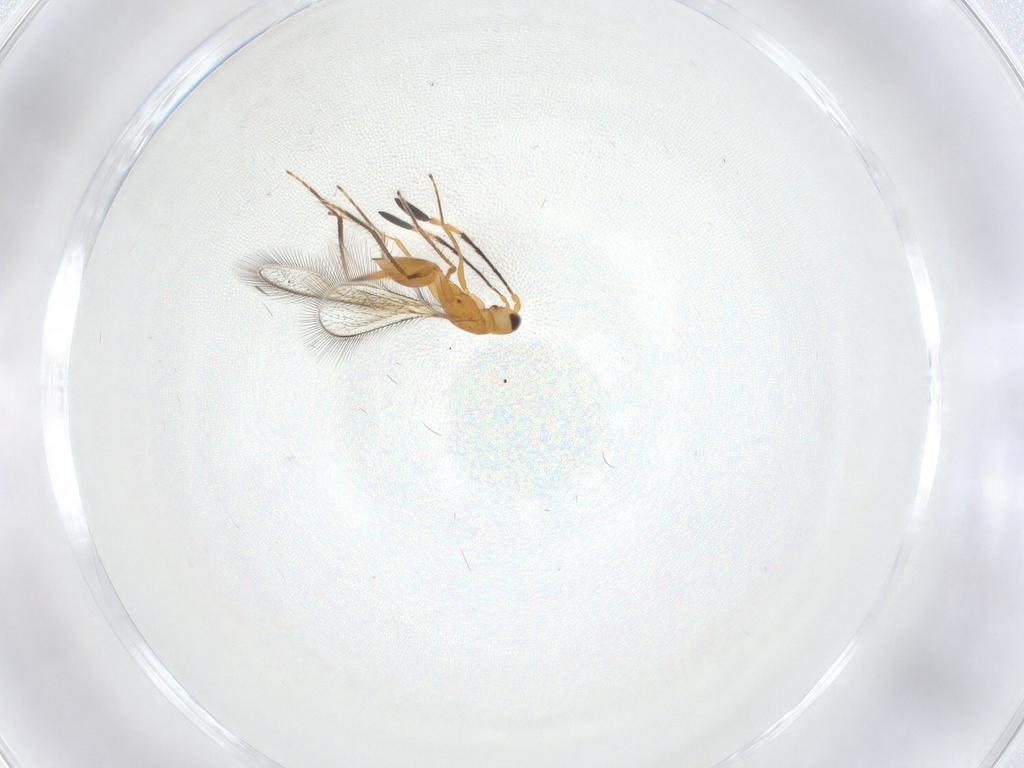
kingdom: Animalia
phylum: Arthropoda
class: Insecta
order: Hymenoptera
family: Mymaridae
